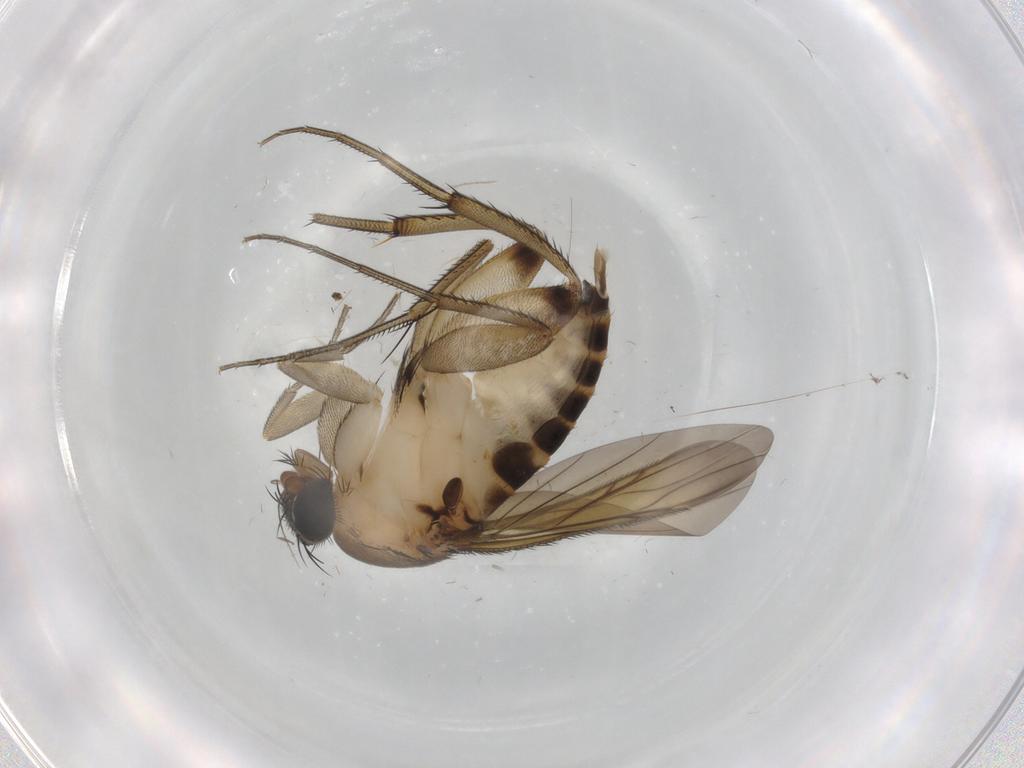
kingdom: Animalia
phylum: Arthropoda
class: Insecta
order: Diptera
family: Phoridae
